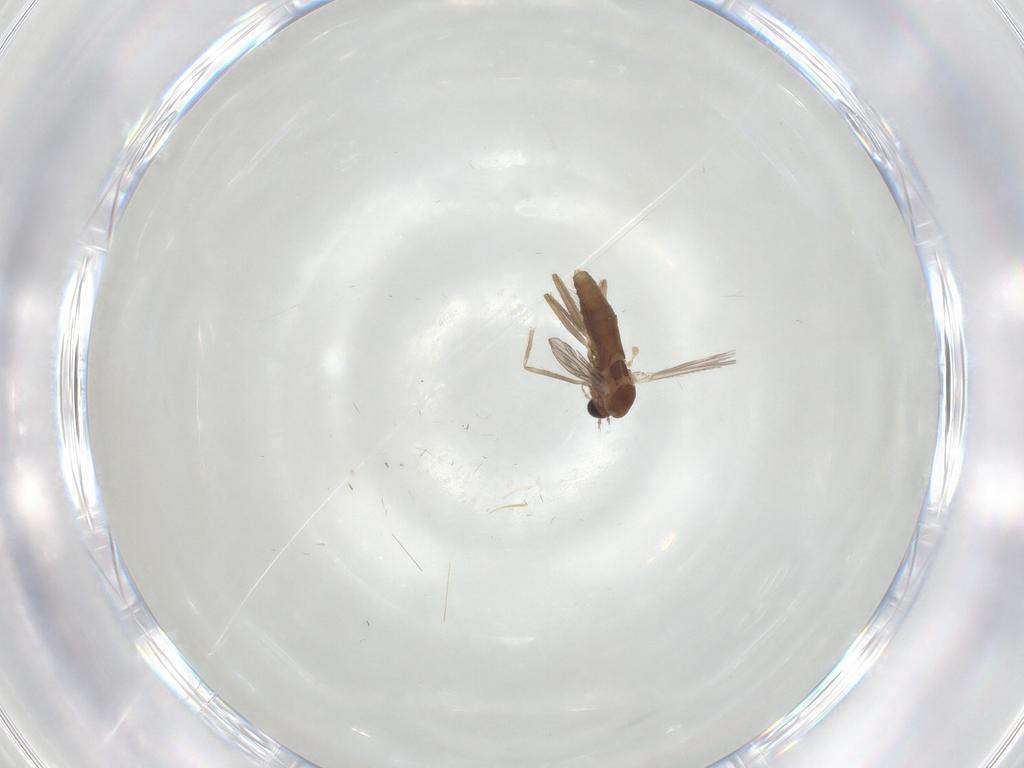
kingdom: Animalia
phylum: Arthropoda
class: Insecta
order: Diptera
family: Chironomidae
